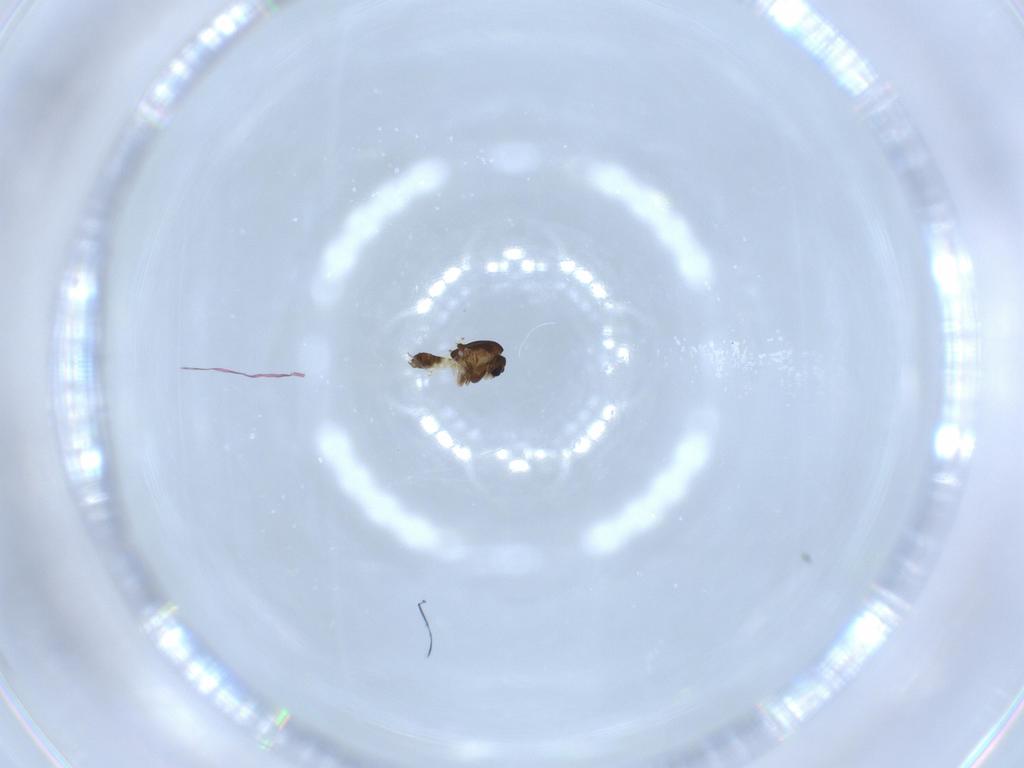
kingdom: Animalia
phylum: Arthropoda
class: Insecta
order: Diptera
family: Chironomidae
